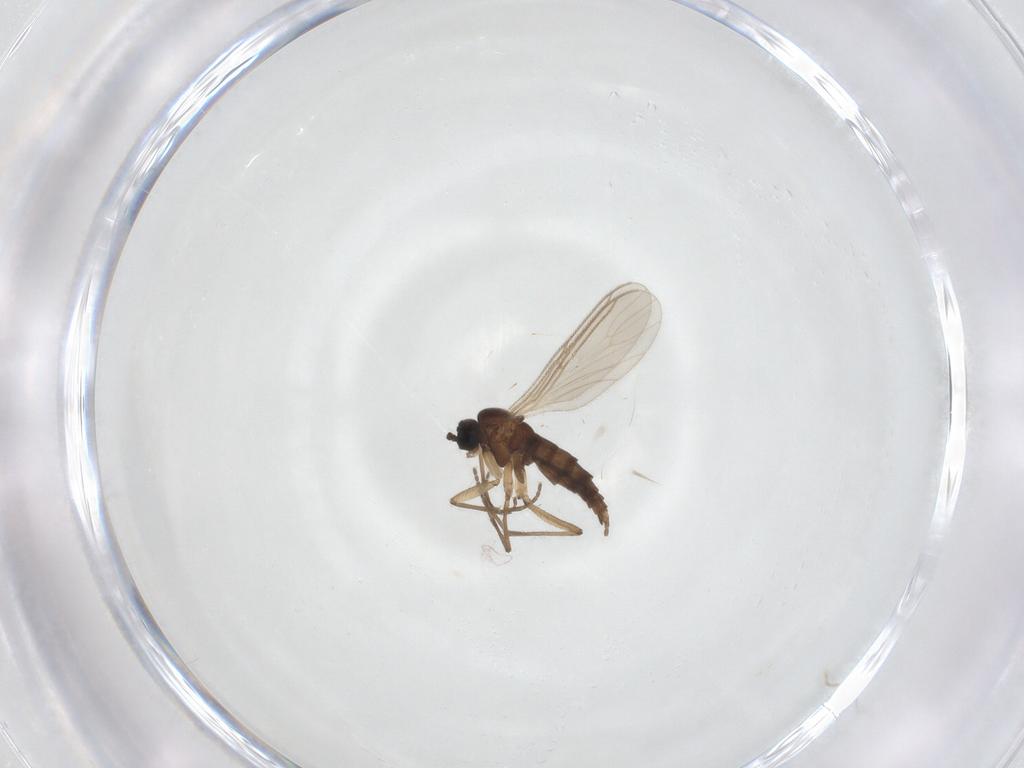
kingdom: Animalia
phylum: Arthropoda
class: Insecta
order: Diptera
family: Sciaridae
